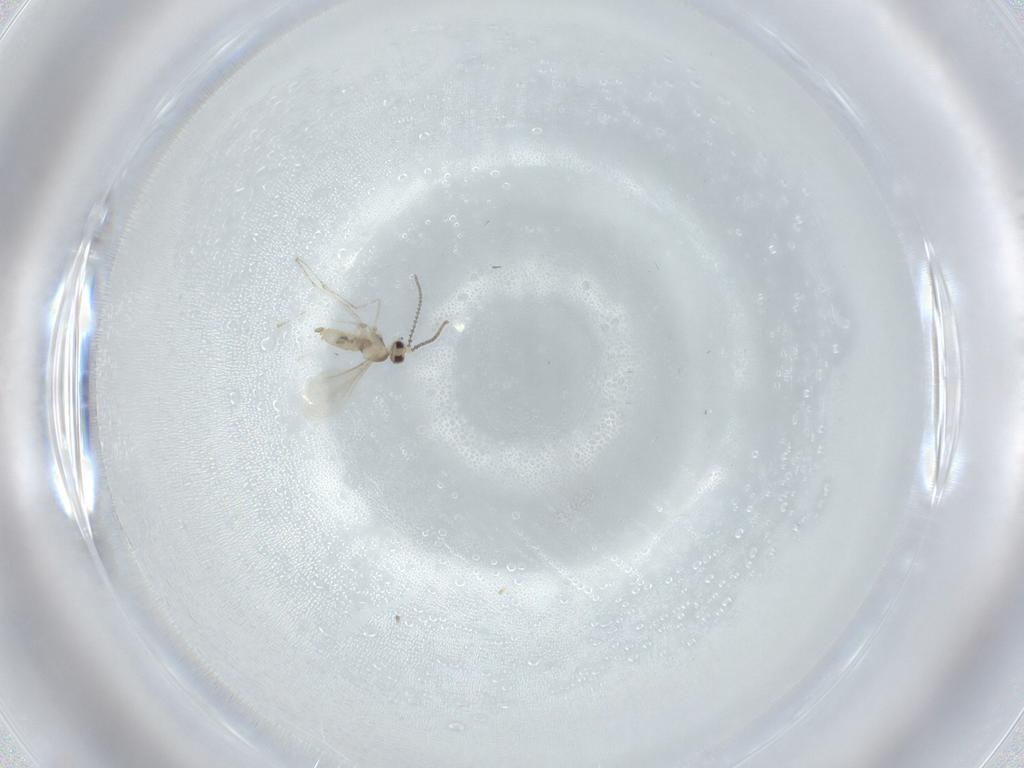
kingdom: Animalia
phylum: Arthropoda
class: Insecta
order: Diptera
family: Cecidomyiidae
